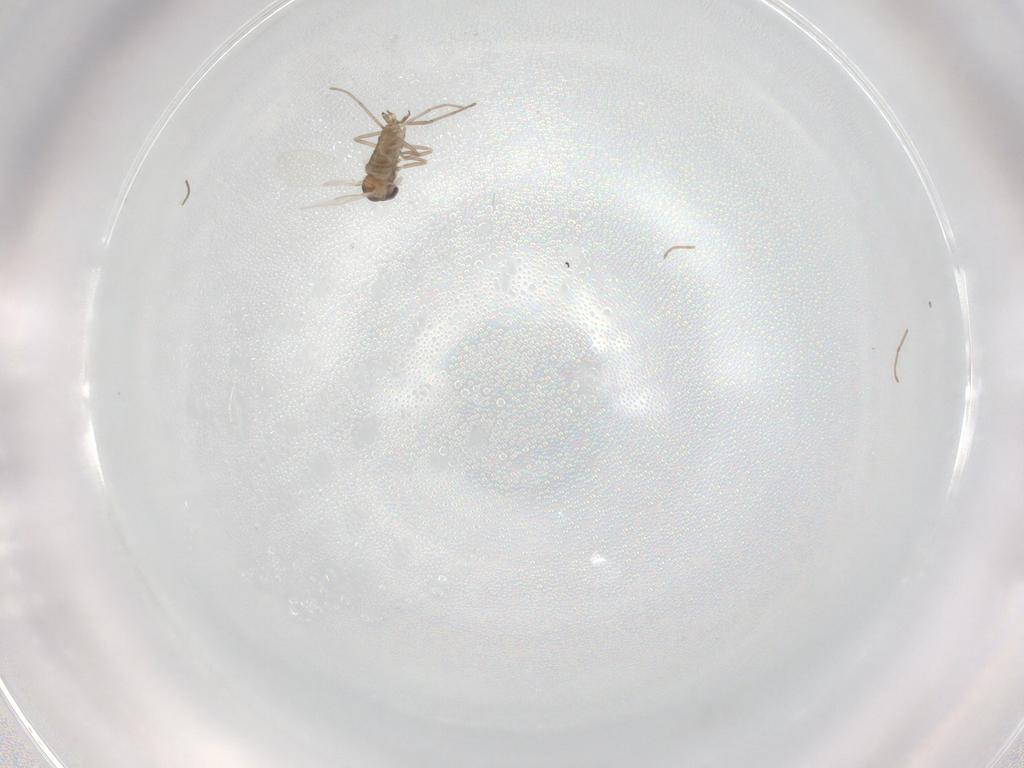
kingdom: Animalia
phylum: Arthropoda
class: Insecta
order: Diptera
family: Cecidomyiidae
